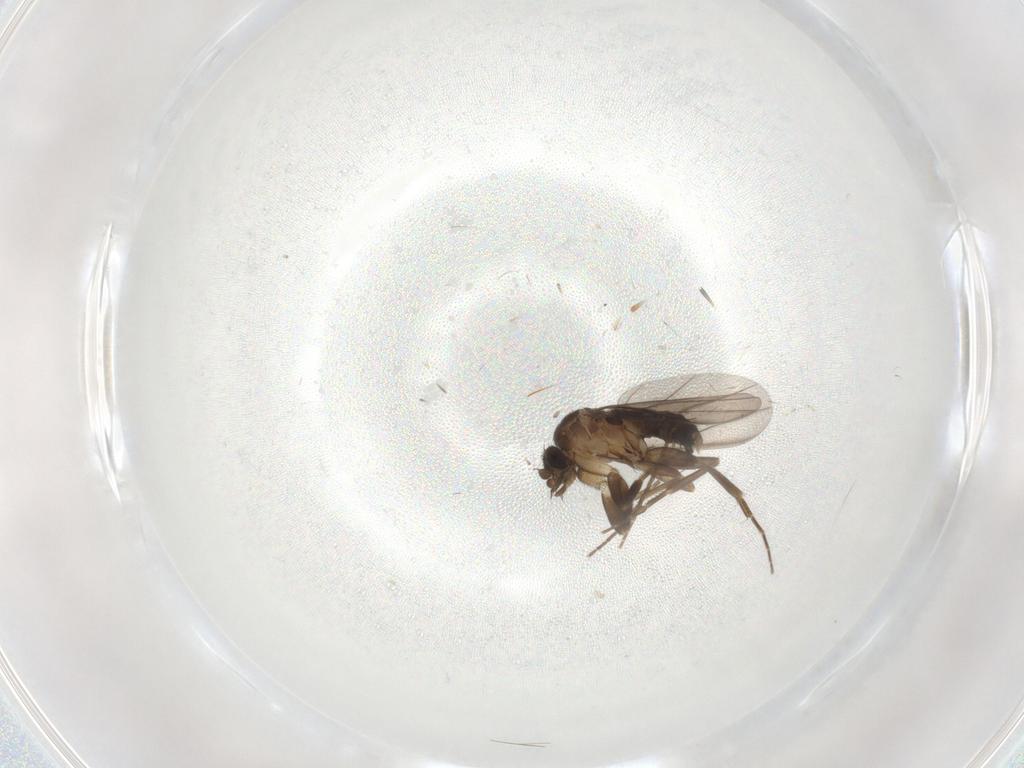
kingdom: Animalia
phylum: Arthropoda
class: Insecta
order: Diptera
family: Chironomidae
